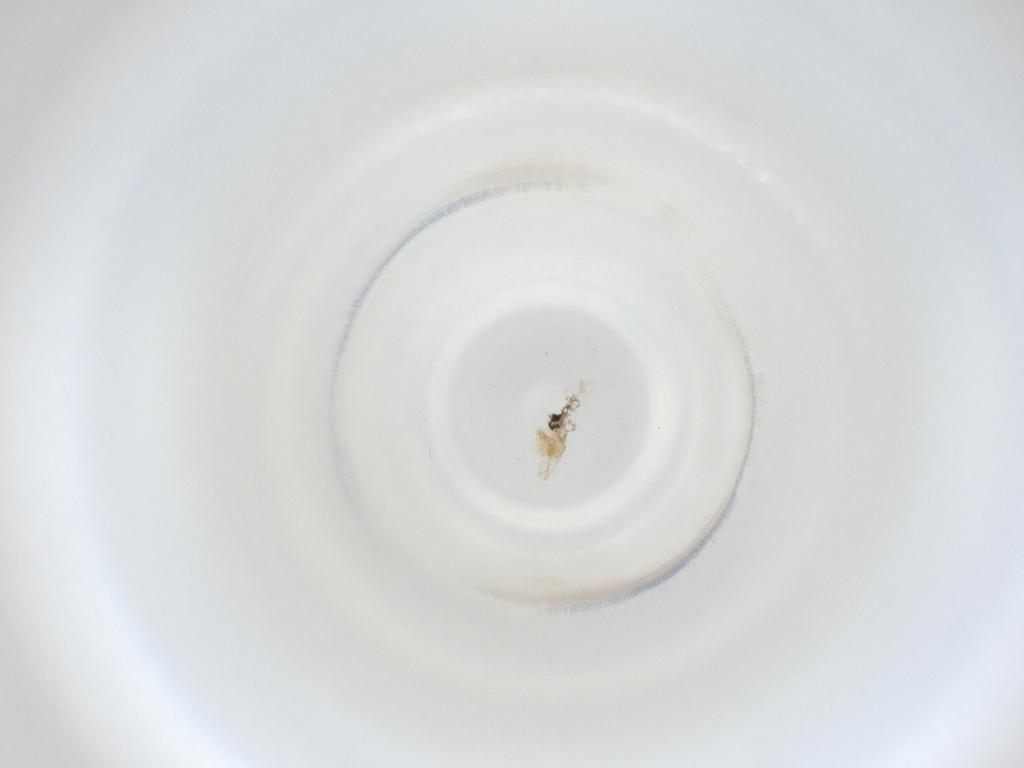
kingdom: Animalia
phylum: Arthropoda
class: Insecta
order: Diptera
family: Cecidomyiidae
